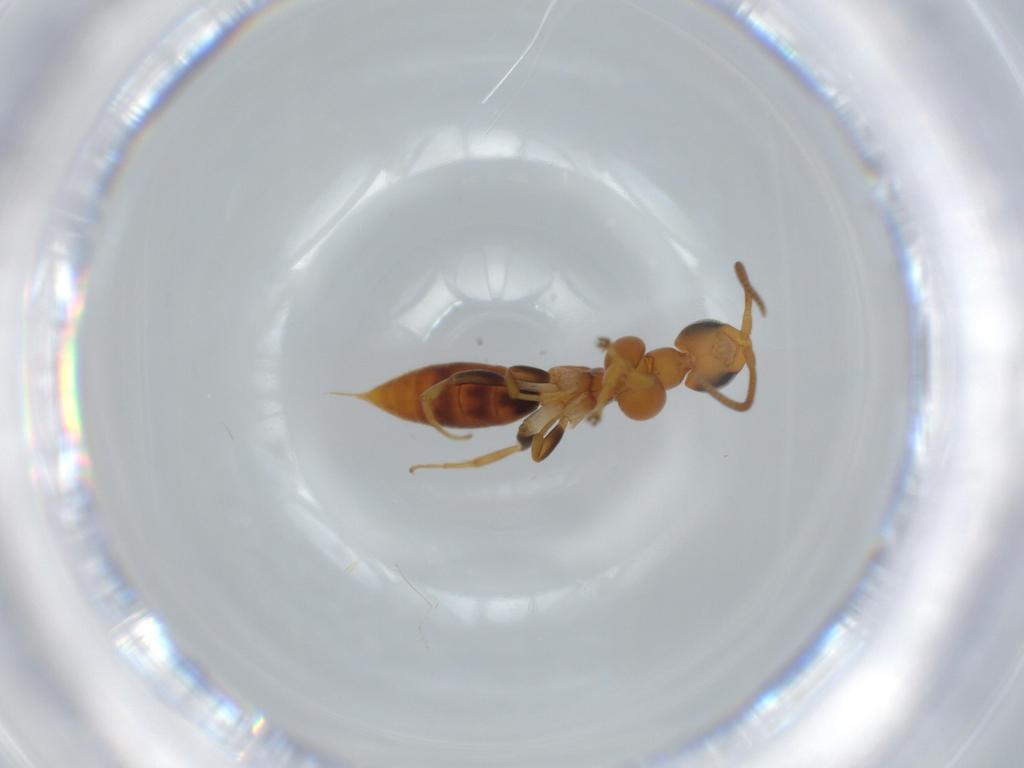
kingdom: Animalia
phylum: Arthropoda
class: Insecta
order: Hymenoptera
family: Sclerogibbidae
